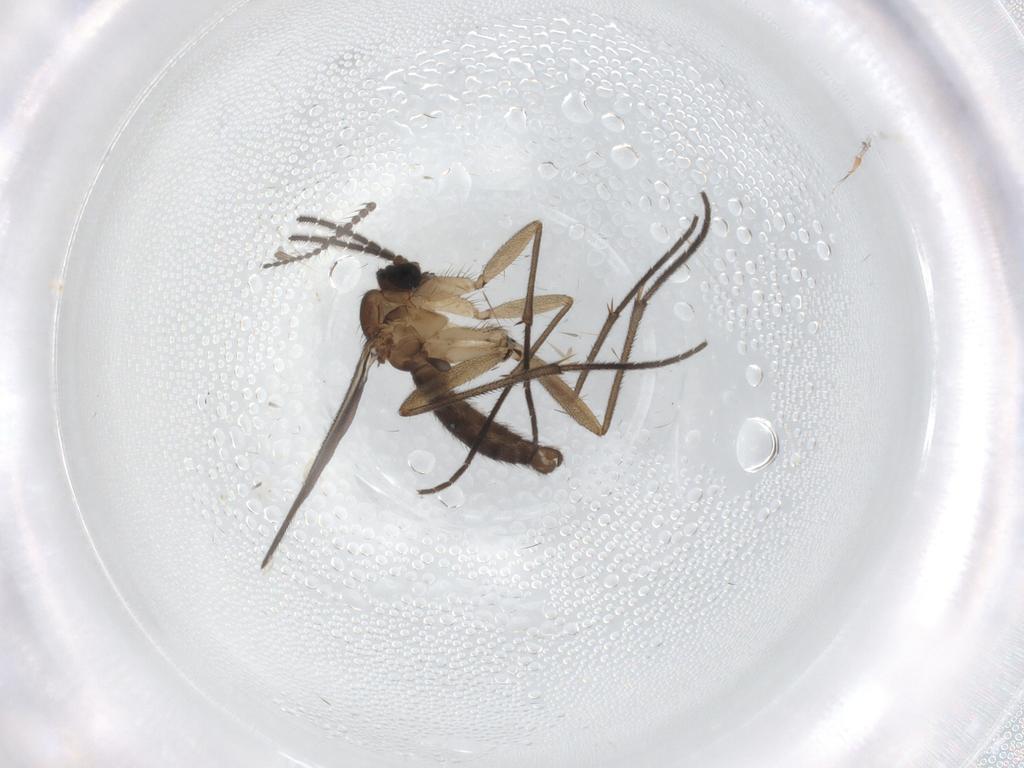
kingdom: Animalia
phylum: Arthropoda
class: Insecta
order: Diptera
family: Limoniidae
